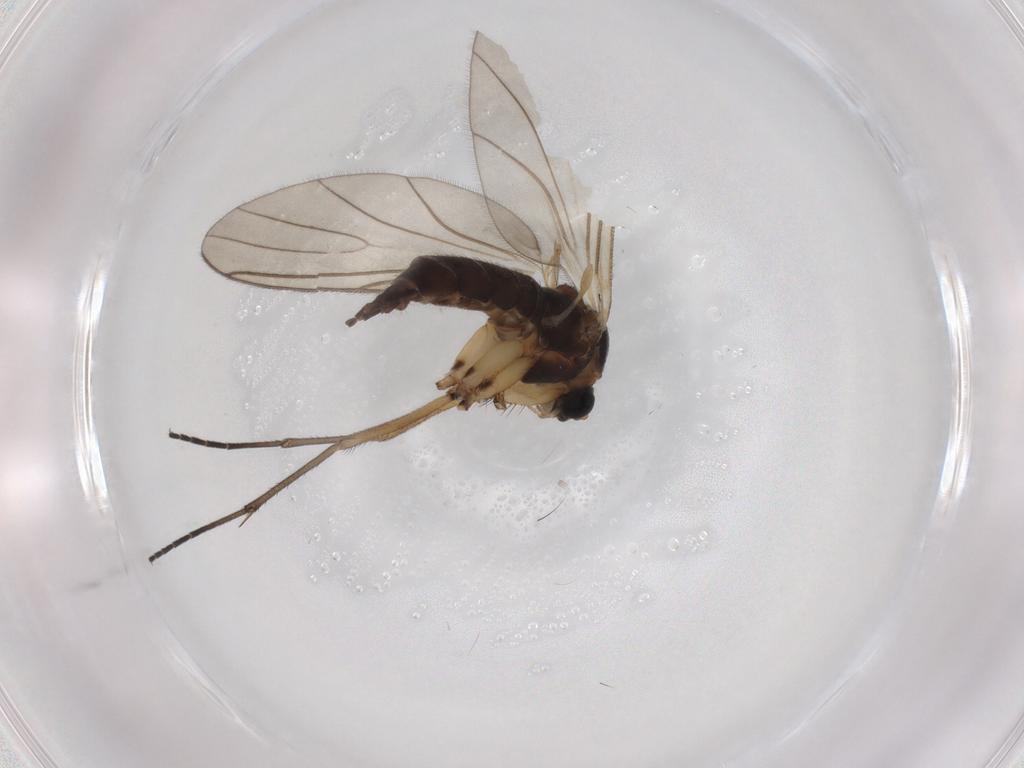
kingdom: Animalia
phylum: Arthropoda
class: Insecta
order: Diptera
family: Sciaridae
